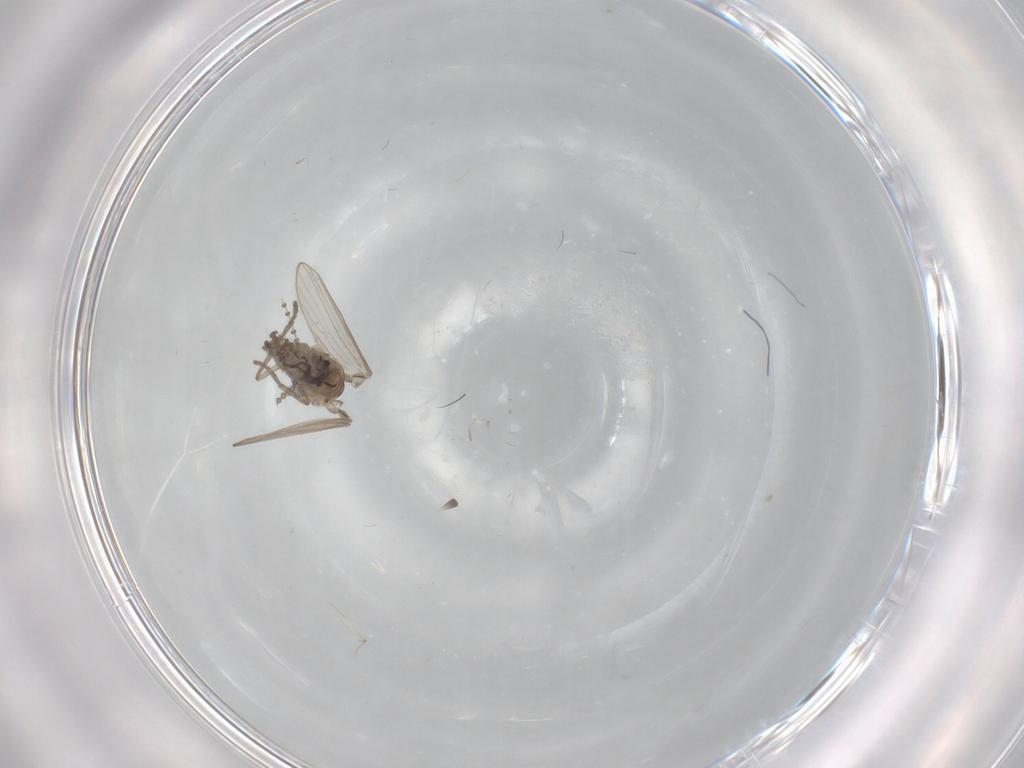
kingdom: Animalia
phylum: Arthropoda
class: Insecta
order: Diptera
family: Psychodidae
